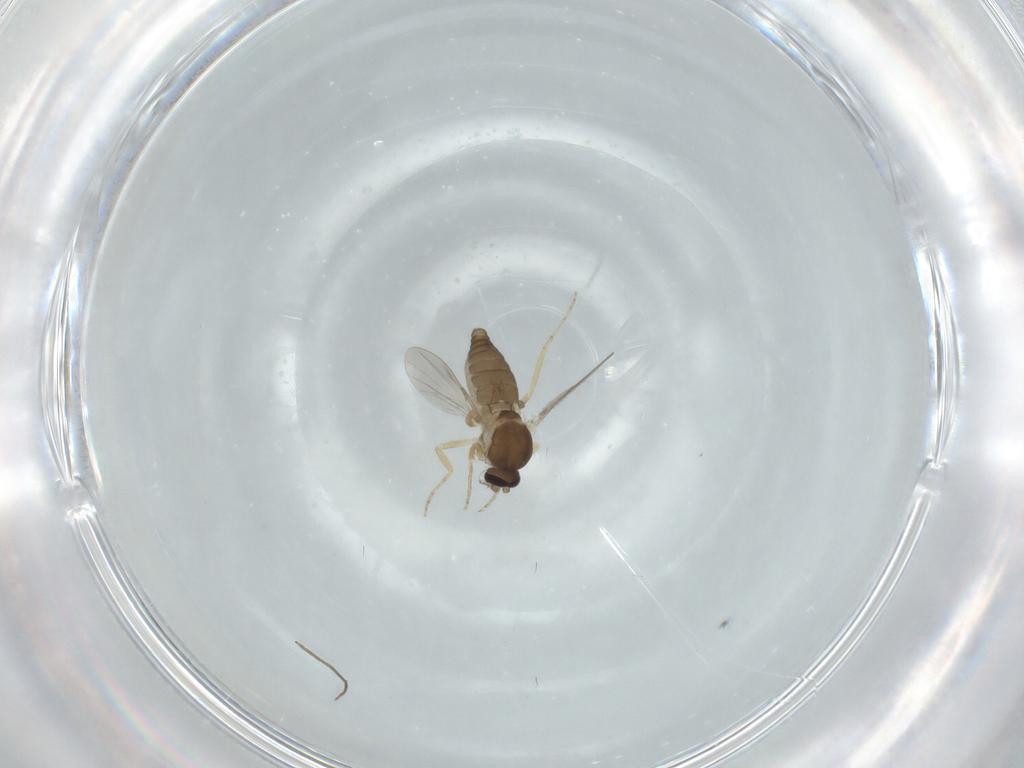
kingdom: Animalia
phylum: Arthropoda
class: Insecta
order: Diptera
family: Ceratopogonidae
